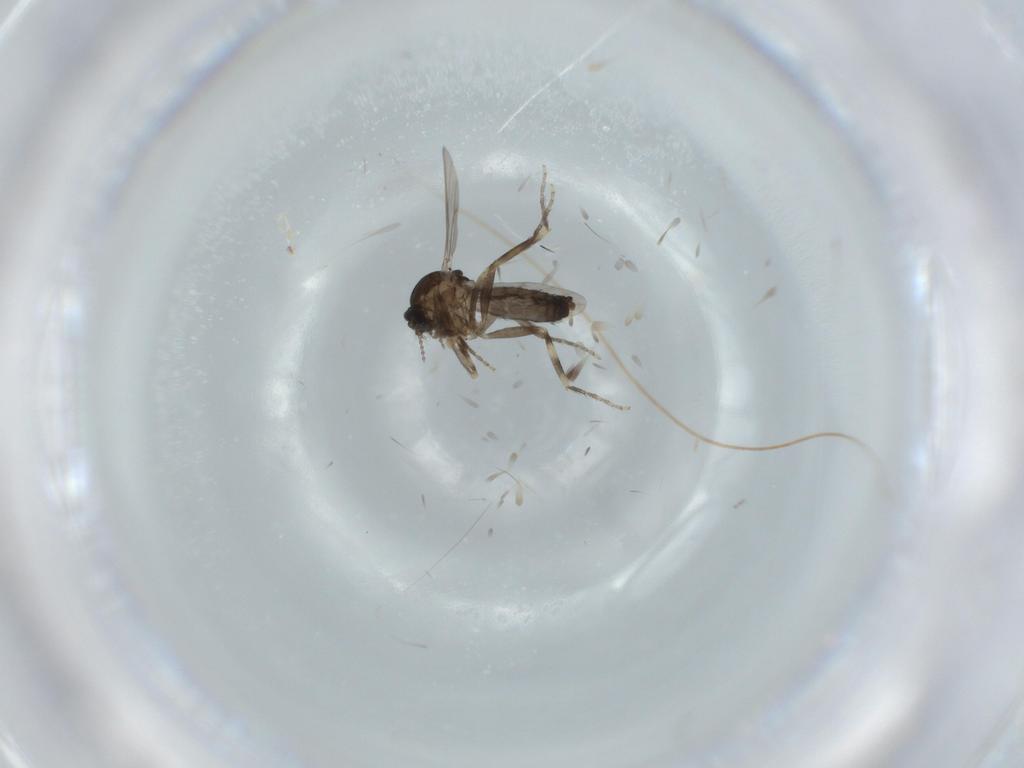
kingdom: Animalia
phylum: Arthropoda
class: Insecta
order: Diptera
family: Ceratopogonidae
